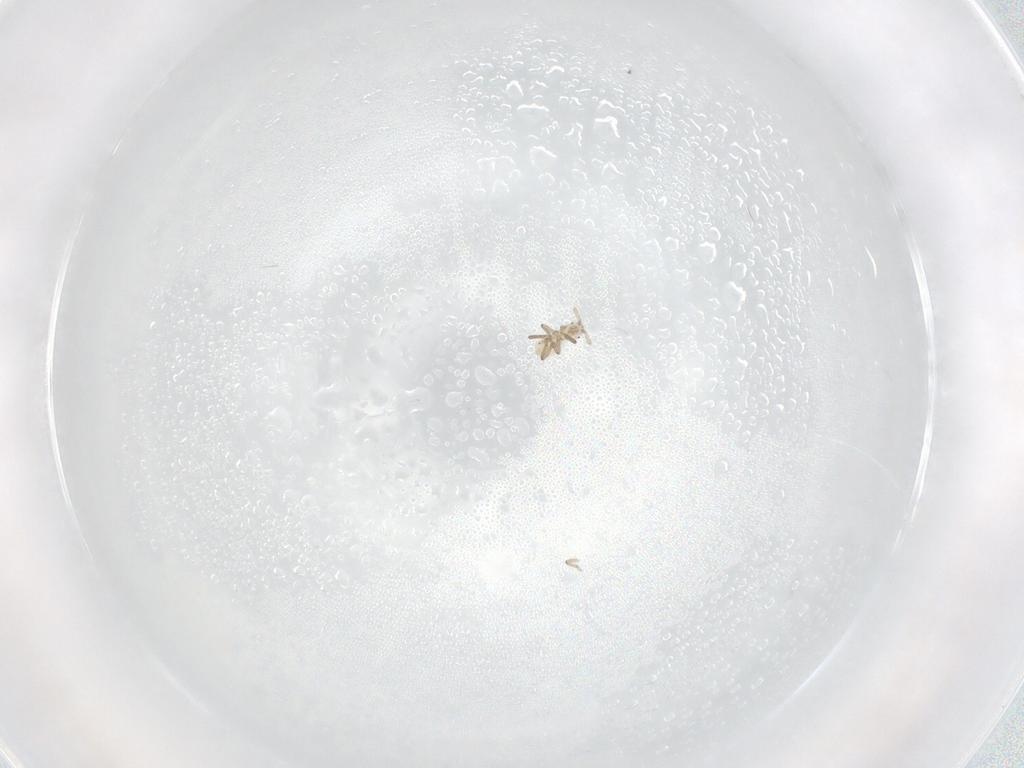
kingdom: Animalia
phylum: Arthropoda
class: Insecta
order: Hemiptera
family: Aphididae
